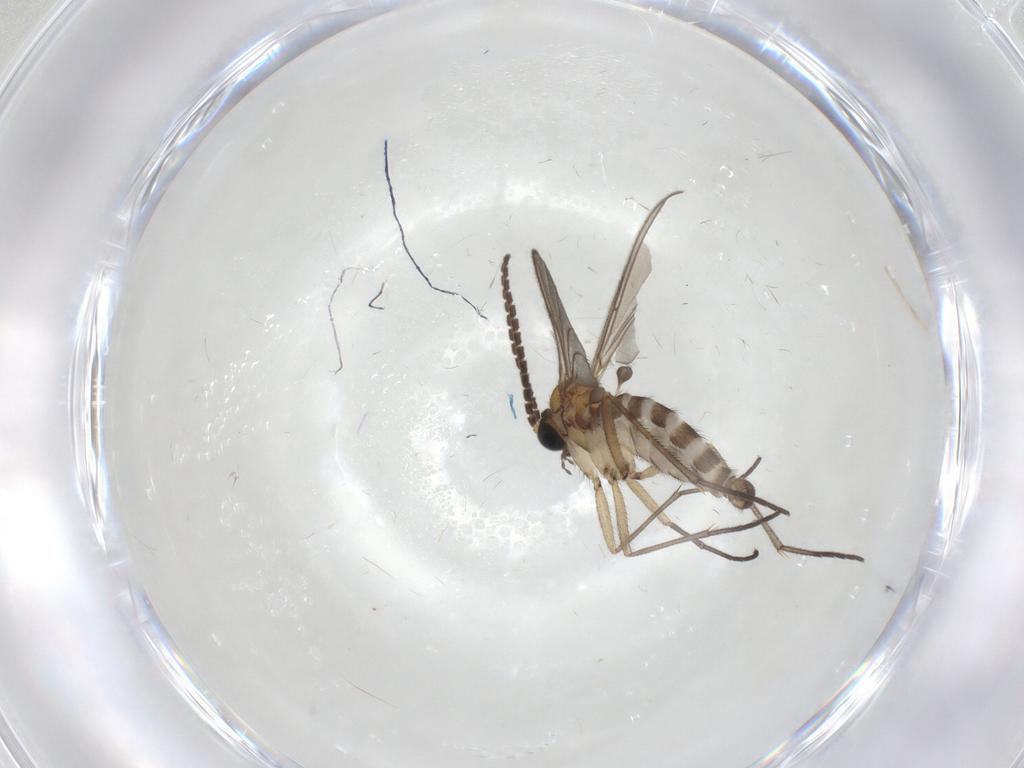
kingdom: Animalia
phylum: Arthropoda
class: Insecta
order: Diptera
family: Sciaridae
